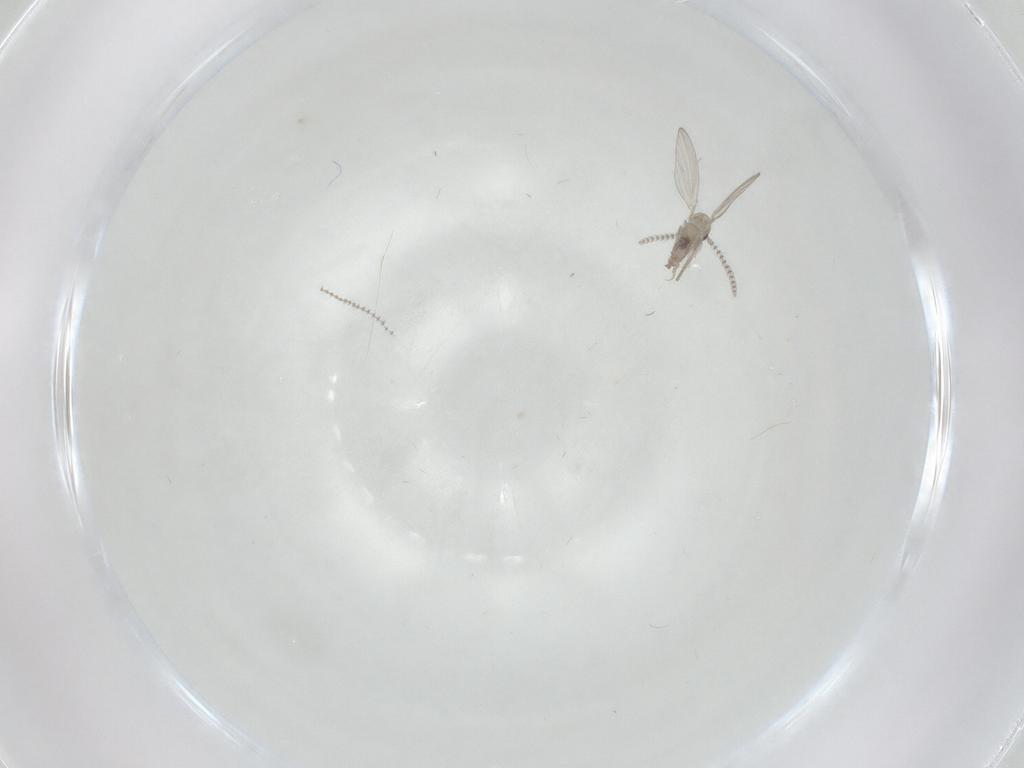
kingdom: Animalia
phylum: Arthropoda
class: Insecta
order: Diptera
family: Psychodidae
